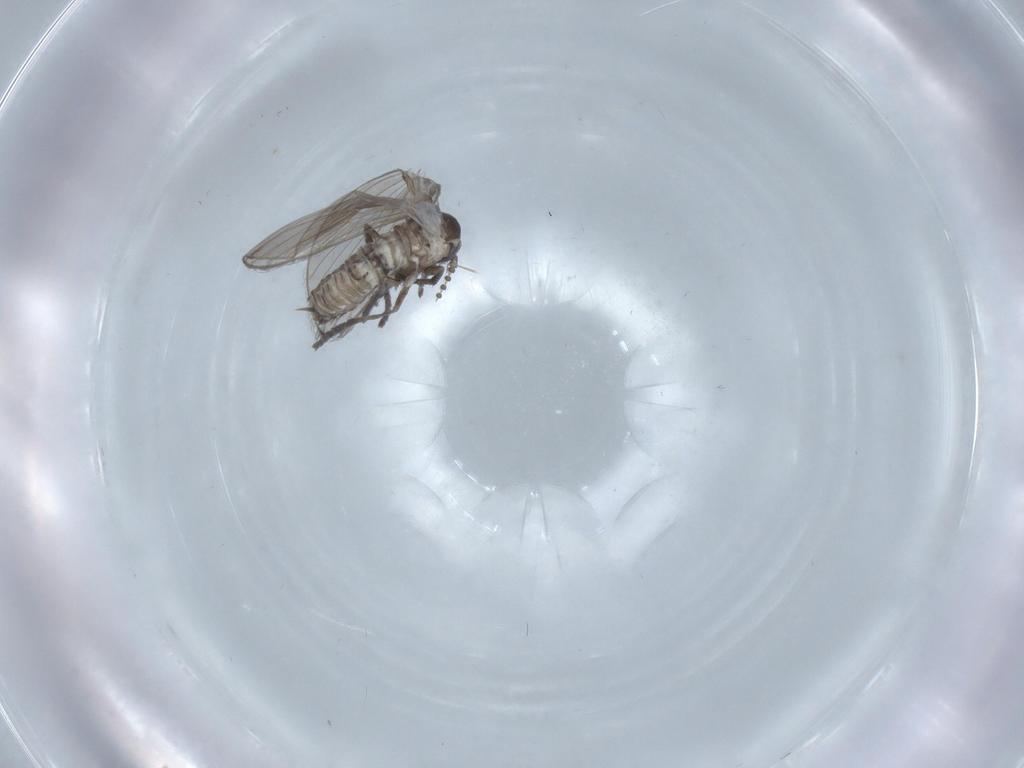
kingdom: Animalia
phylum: Arthropoda
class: Insecta
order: Diptera
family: Psychodidae
